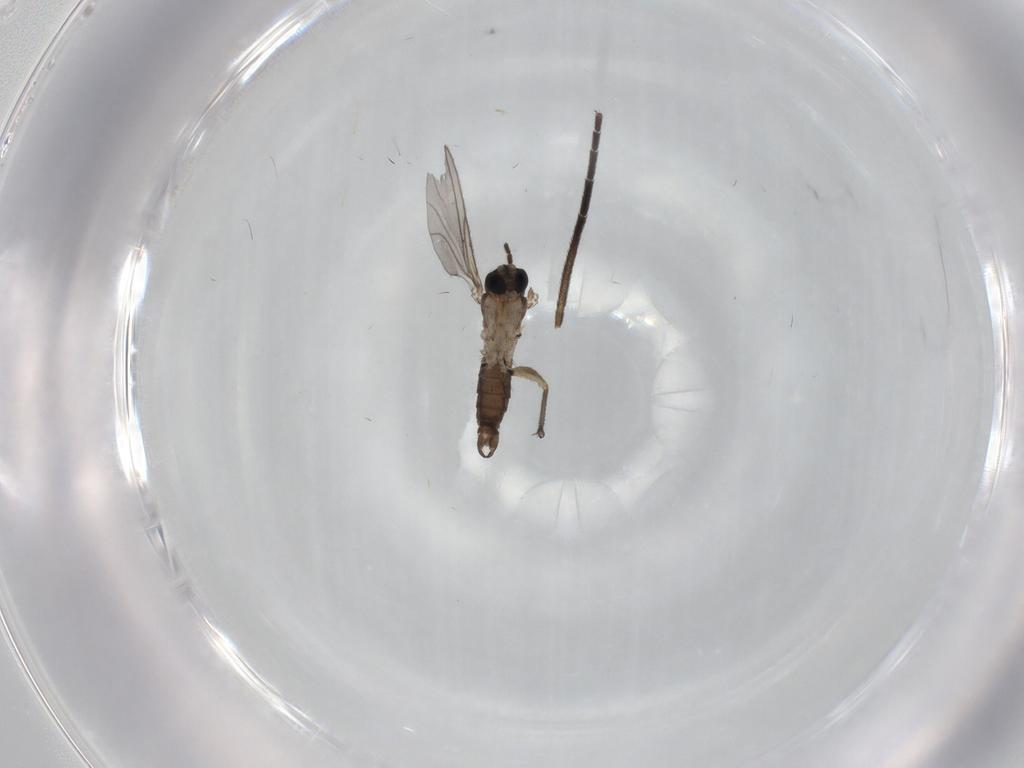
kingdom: Animalia
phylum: Arthropoda
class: Insecta
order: Diptera
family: Sciaridae
